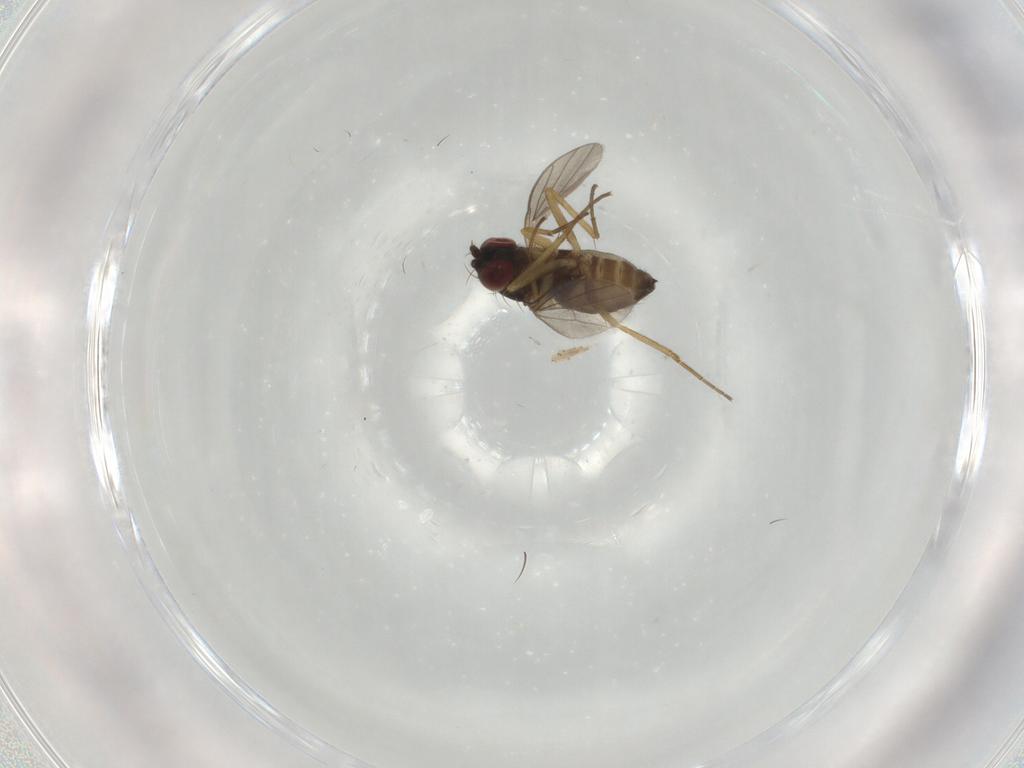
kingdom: Animalia
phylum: Arthropoda
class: Insecta
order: Diptera
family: Dolichopodidae
